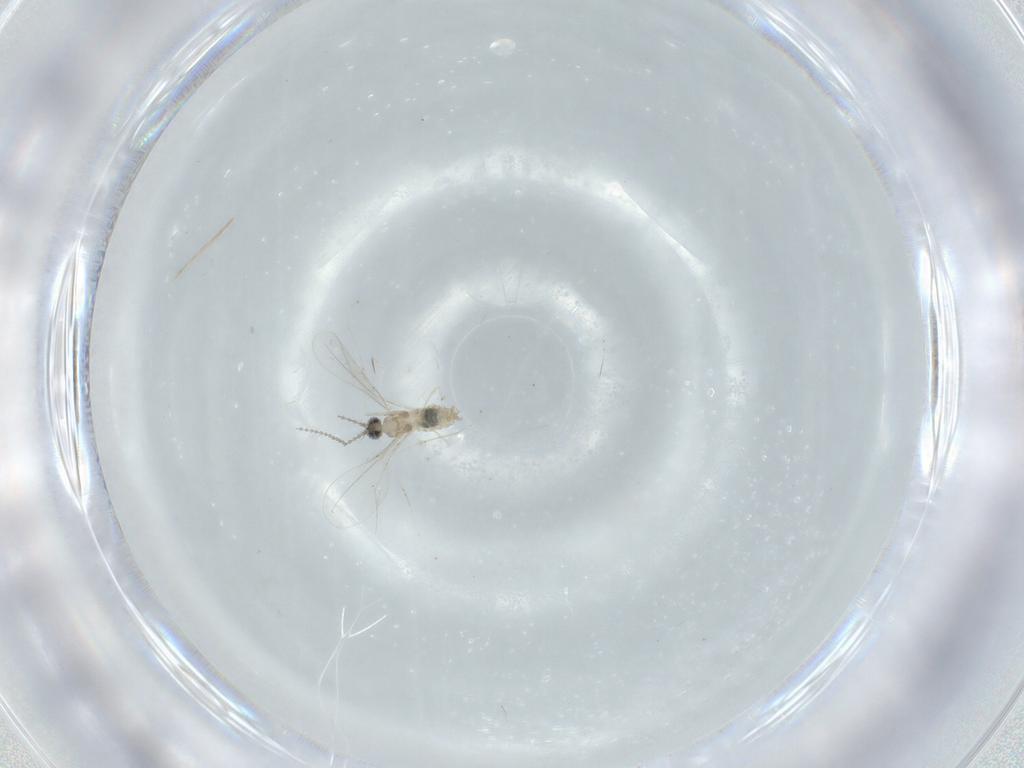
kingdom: Animalia
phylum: Arthropoda
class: Insecta
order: Diptera
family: Cecidomyiidae
